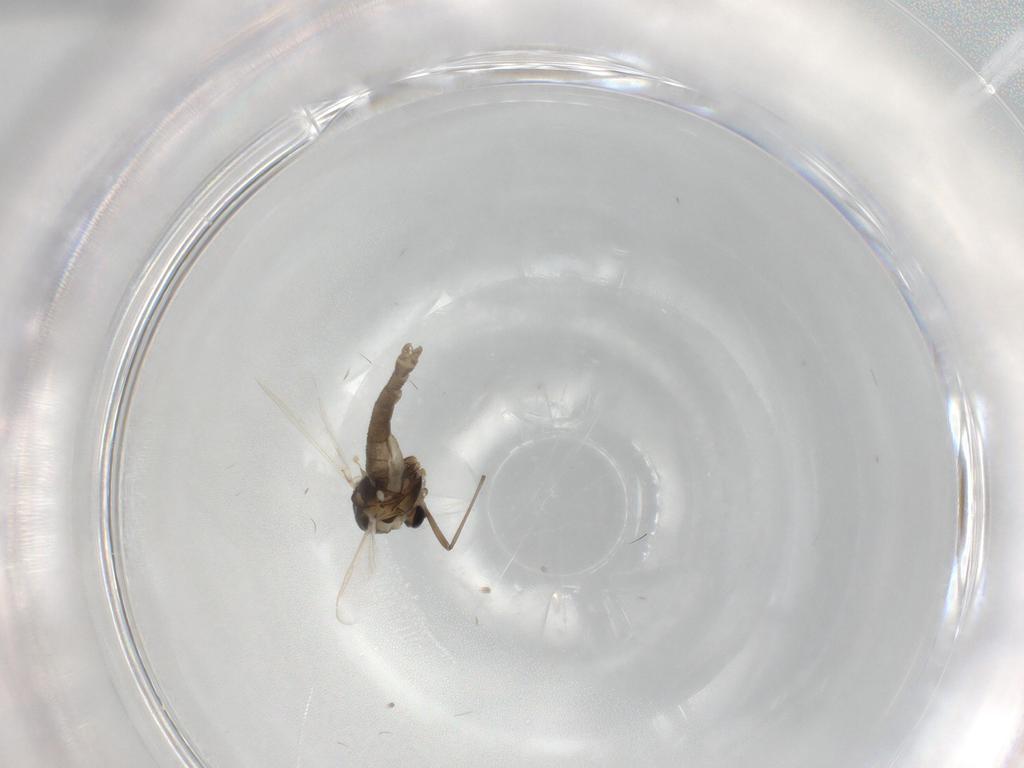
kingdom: Animalia
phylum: Arthropoda
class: Insecta
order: Diptera
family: Chironomidae
